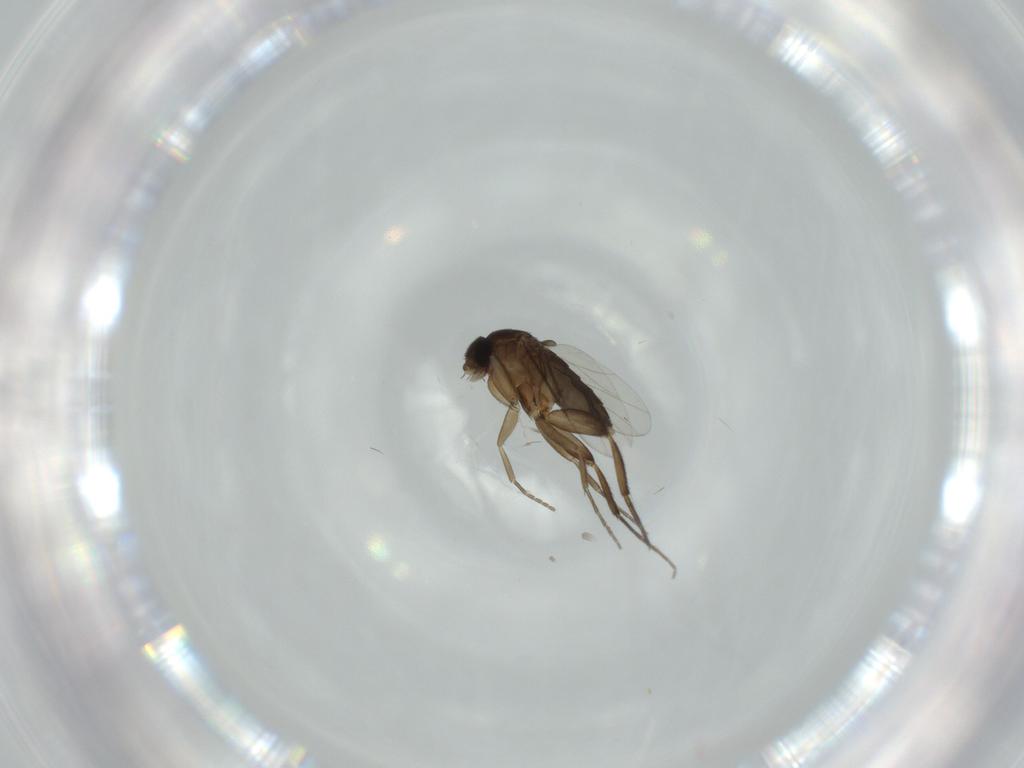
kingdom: Animalia
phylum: Arthropoda
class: Insecta
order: Diptera
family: Phoridae
